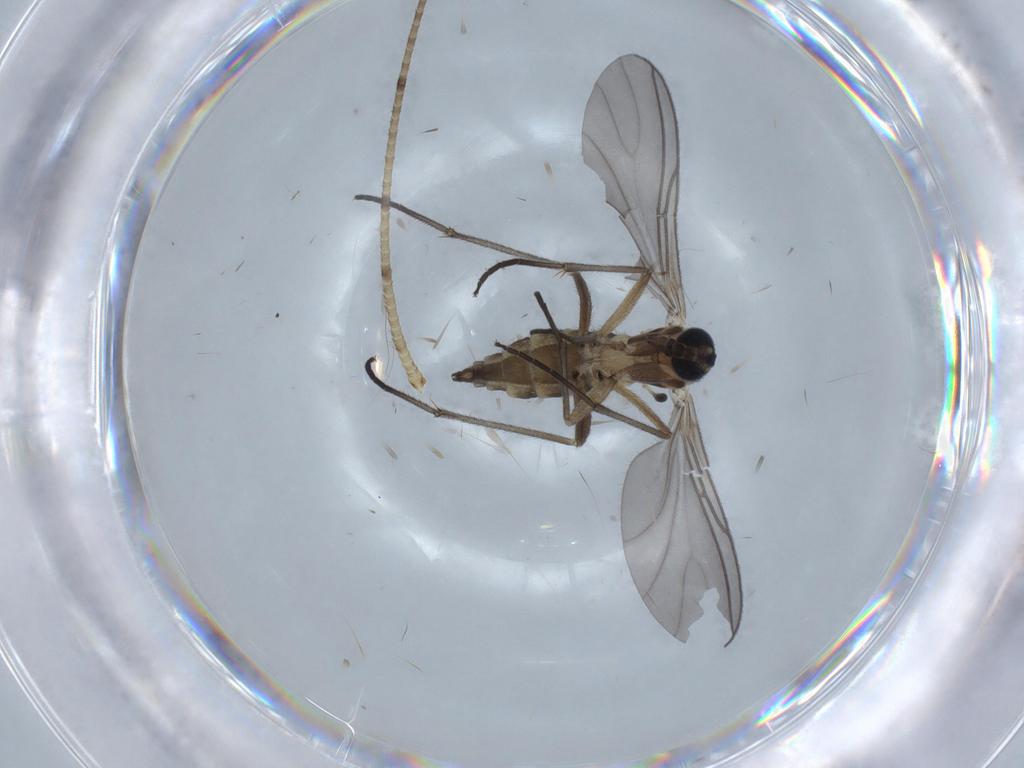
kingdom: Animalia
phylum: Arthropoda
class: Insecta
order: Diptera
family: Sciaridae
